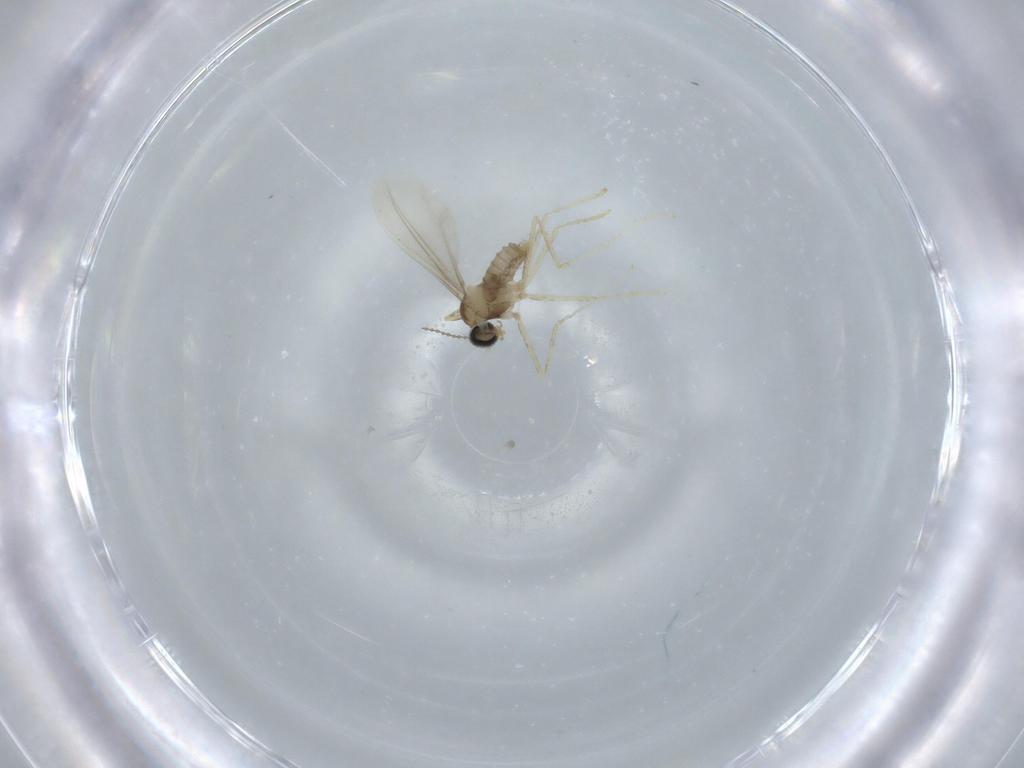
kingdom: Animalia
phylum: Arthropoda
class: Insecta
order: Diptera
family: Cecidomyiidae
